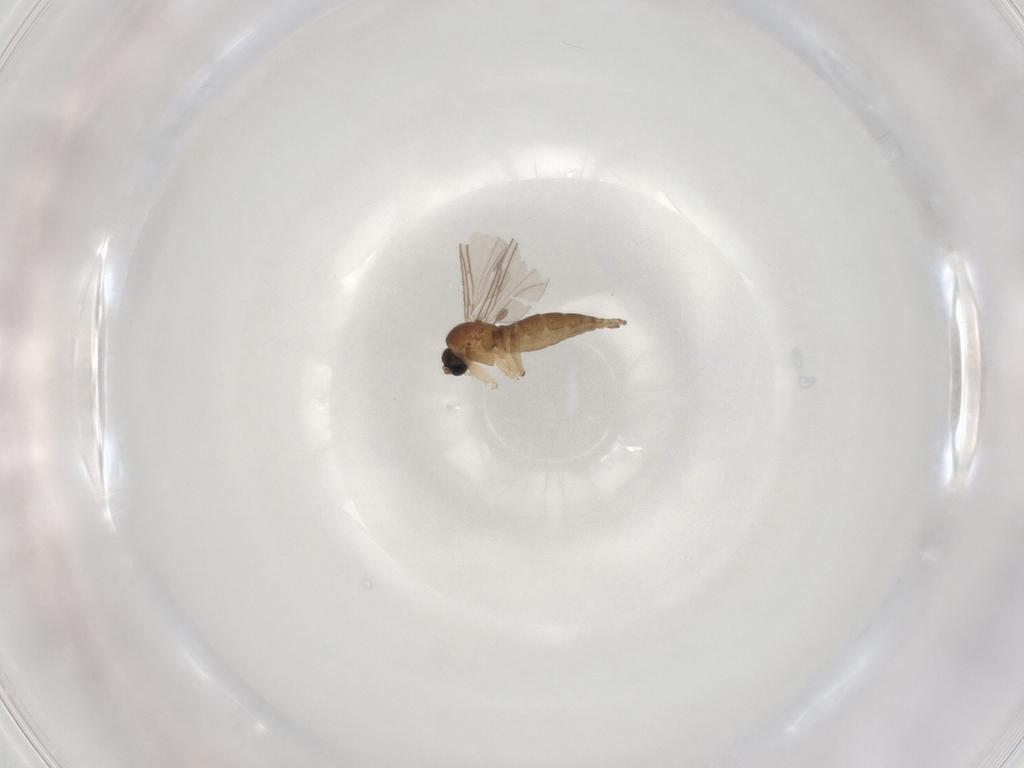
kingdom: Animalia
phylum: Arthropoda
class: Insecta
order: Diptera
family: Sciaridae
